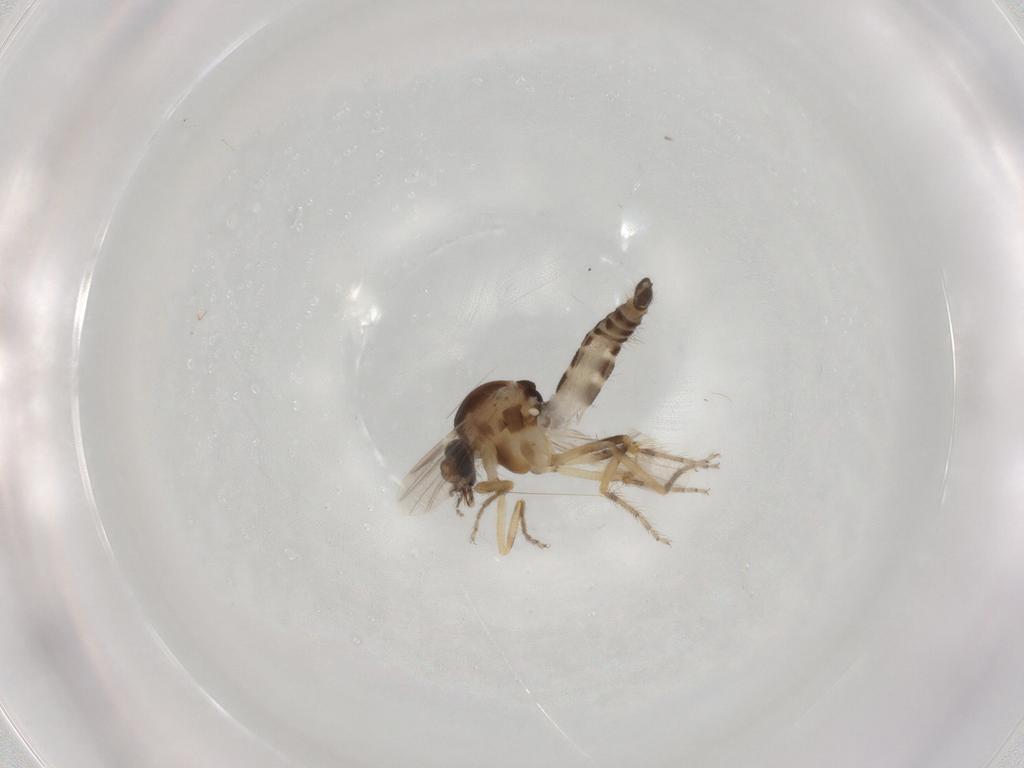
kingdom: Animalia
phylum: Arthropoda
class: Insecta
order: Diptera
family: Ceratopogonidae
